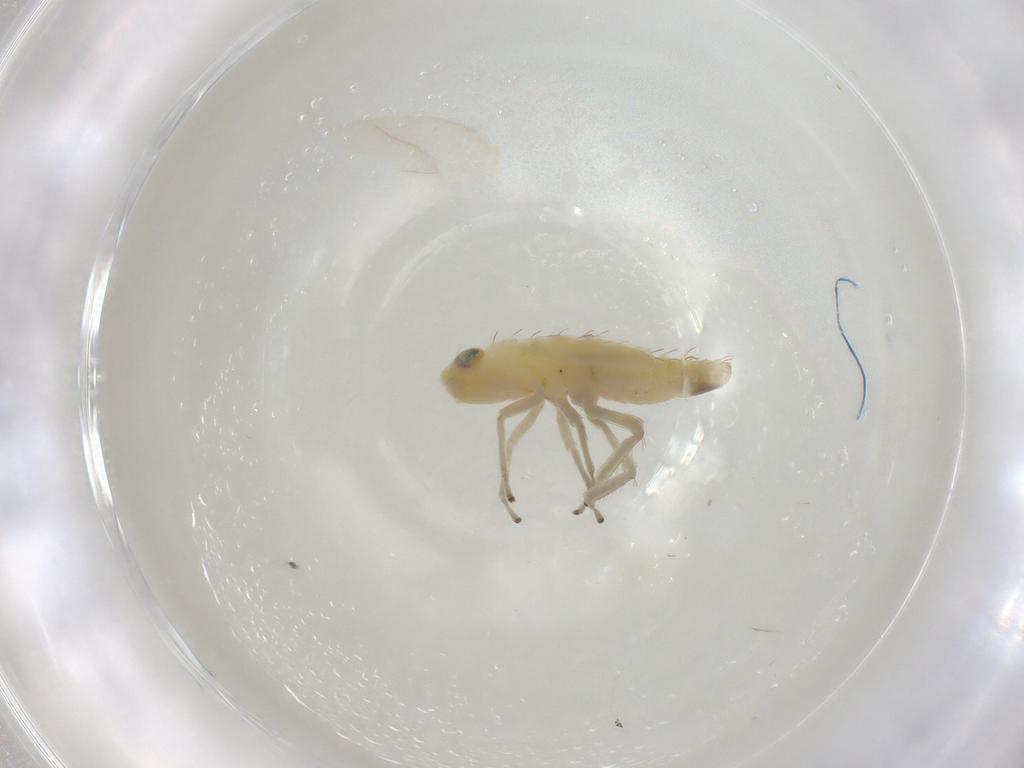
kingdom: Animalia
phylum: Arthropoda
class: Insecta
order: Hemiptera
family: Cicadellidae
